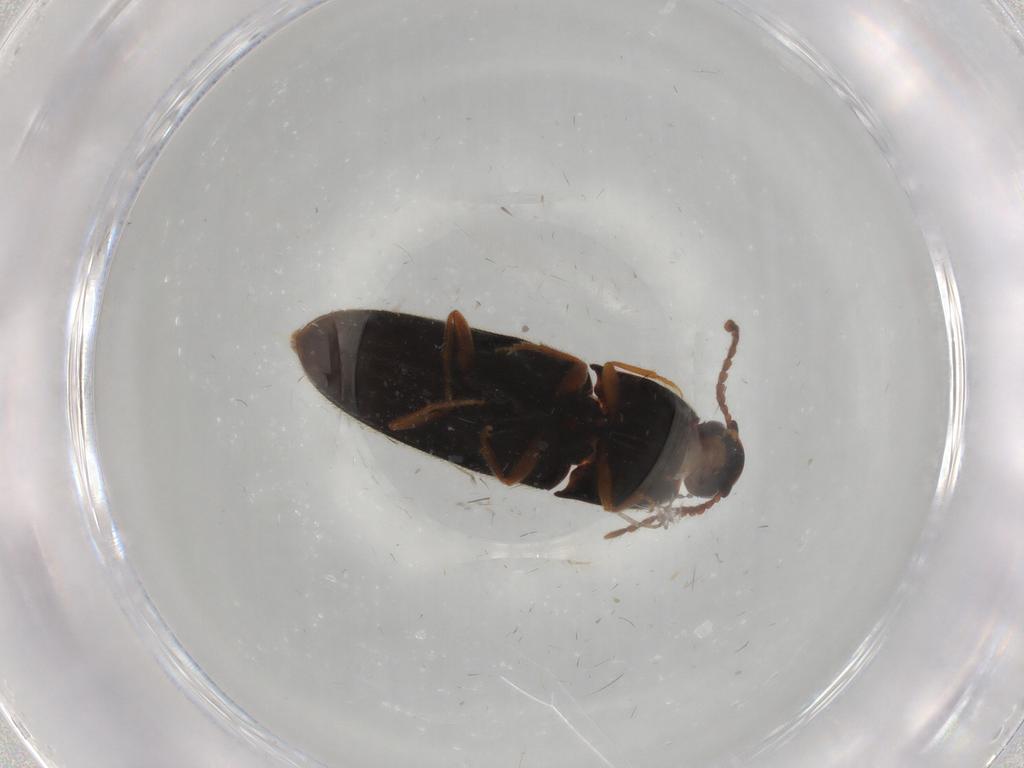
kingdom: Animalia
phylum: Arthropoda
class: Insecta
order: Coleoptera
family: Elateridae
